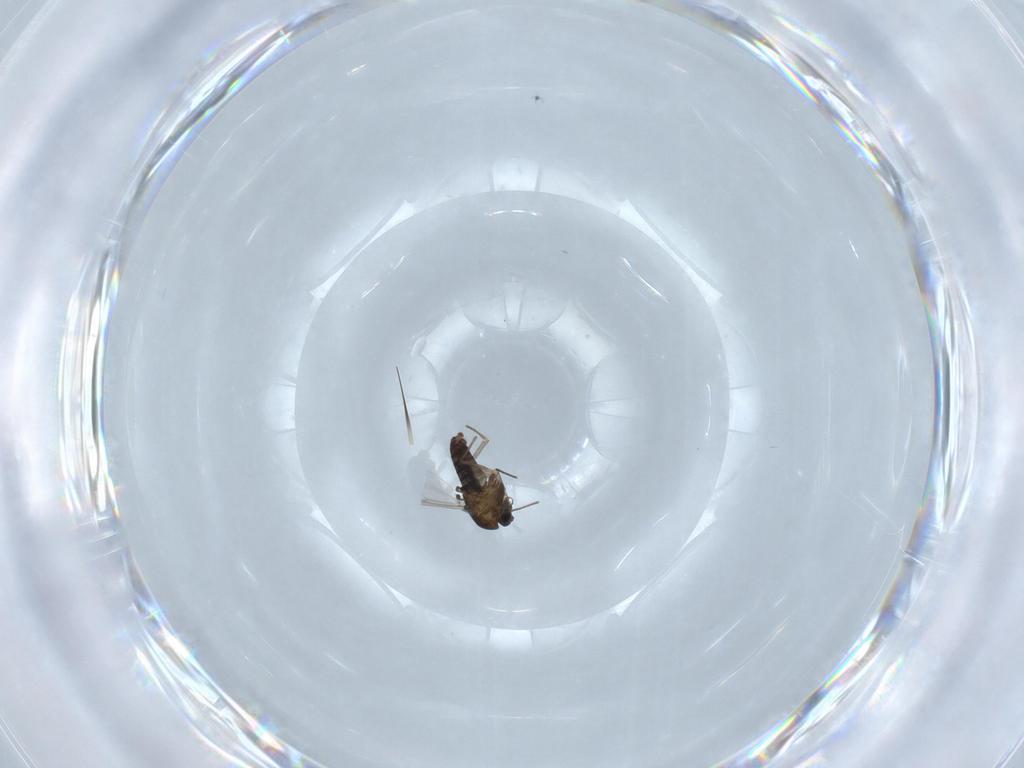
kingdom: Animalia
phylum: Arthropoda
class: Insecta
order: Diptera
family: Chironomidae
